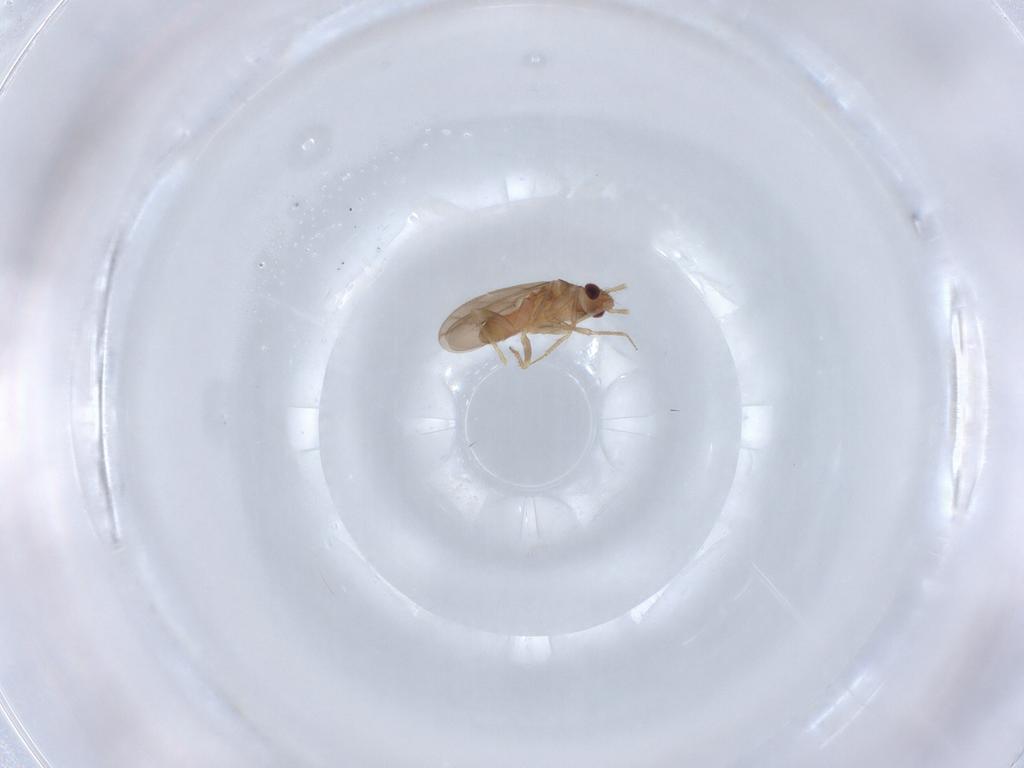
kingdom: Animalia
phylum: Arthropoda
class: Insecta
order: Hemiptera
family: Ceratocombidae
